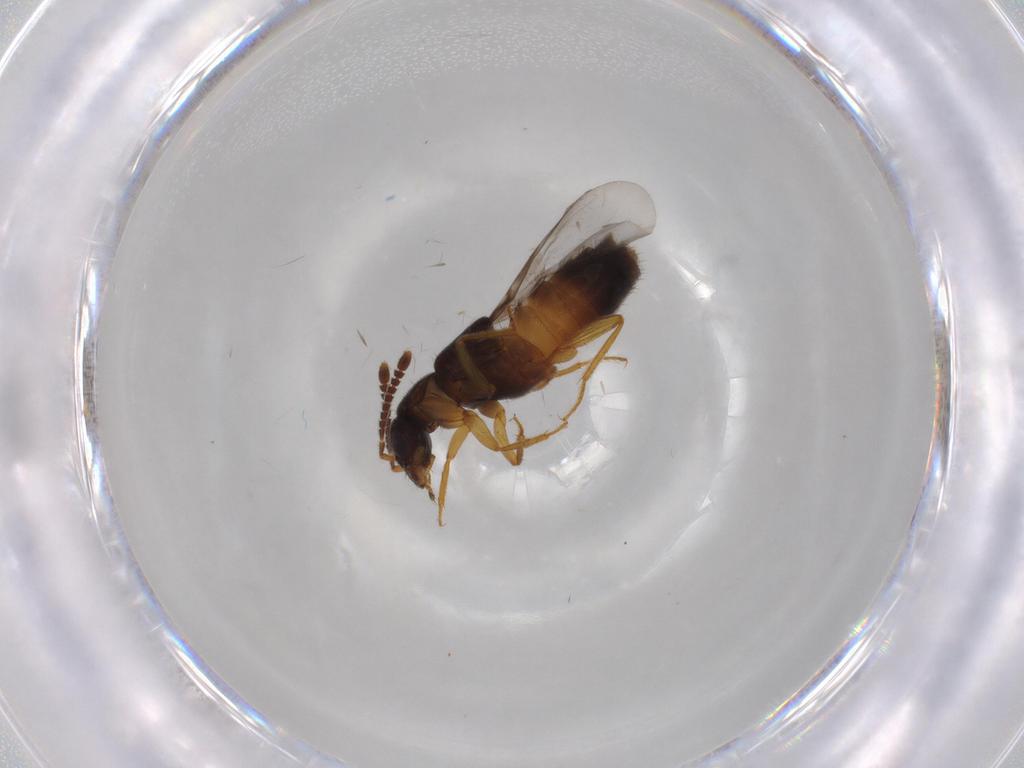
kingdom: Animalia
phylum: Arthropoda
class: Insecta
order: Coleoptera
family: Staphylinidae
